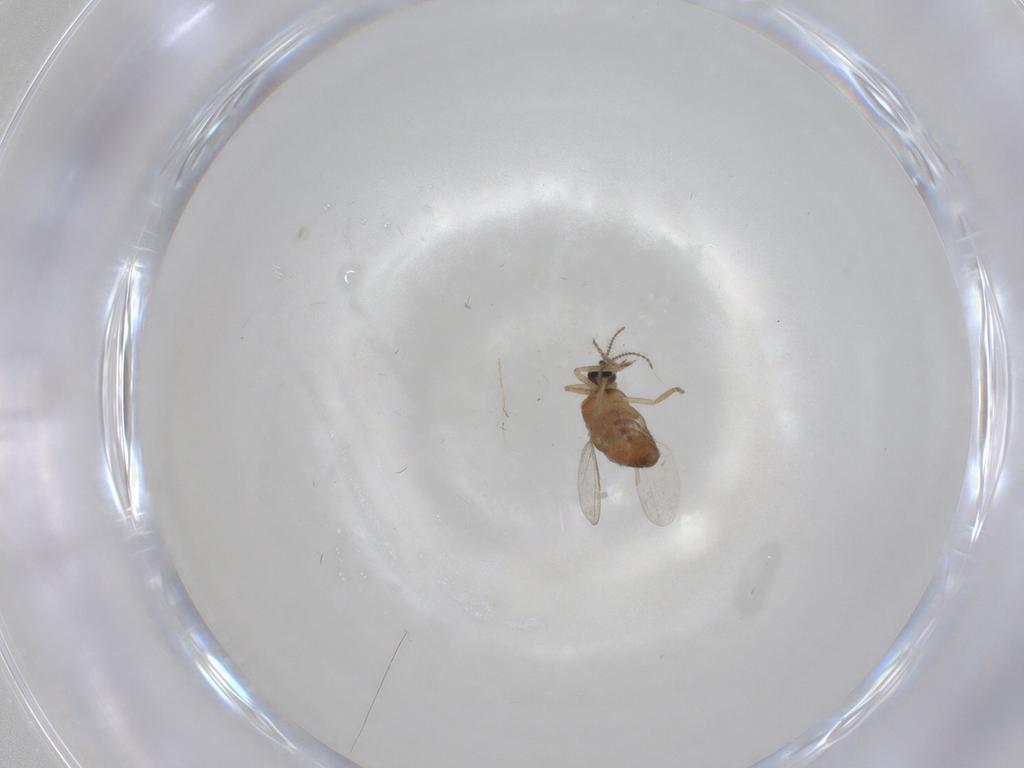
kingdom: Animalia
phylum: Arthropoda
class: Insecta
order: Diptera
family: Ceratopogonidae
